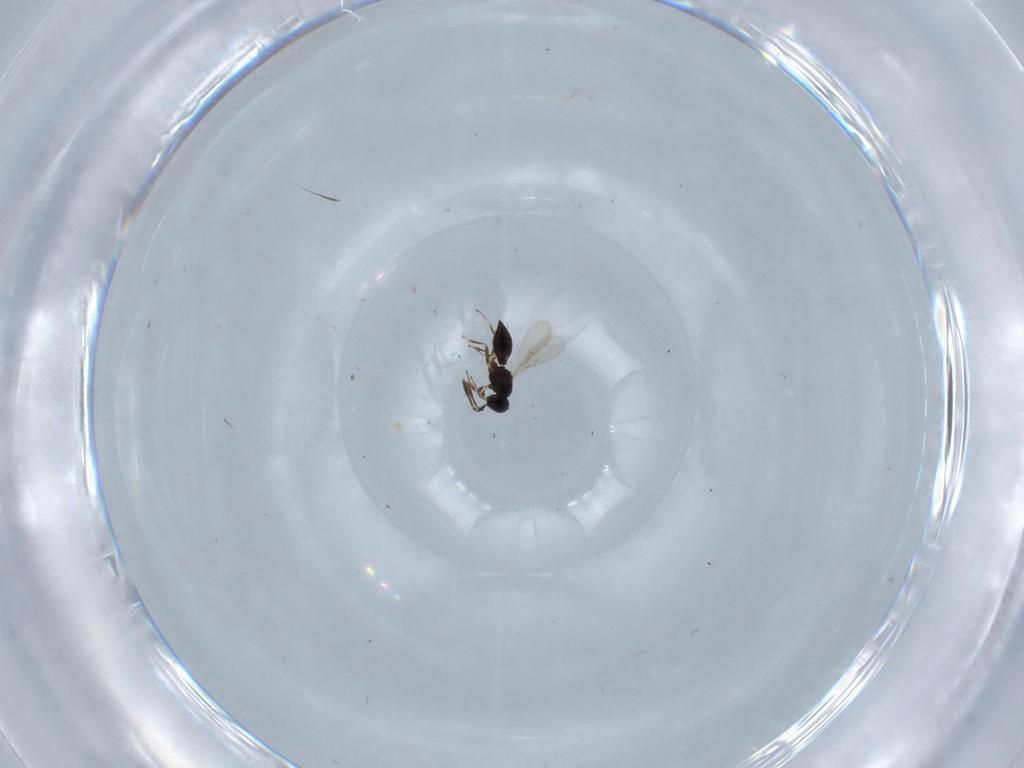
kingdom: Animalia
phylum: Arthropoda
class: Insecta
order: Hymenoptera
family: Scelionidae
